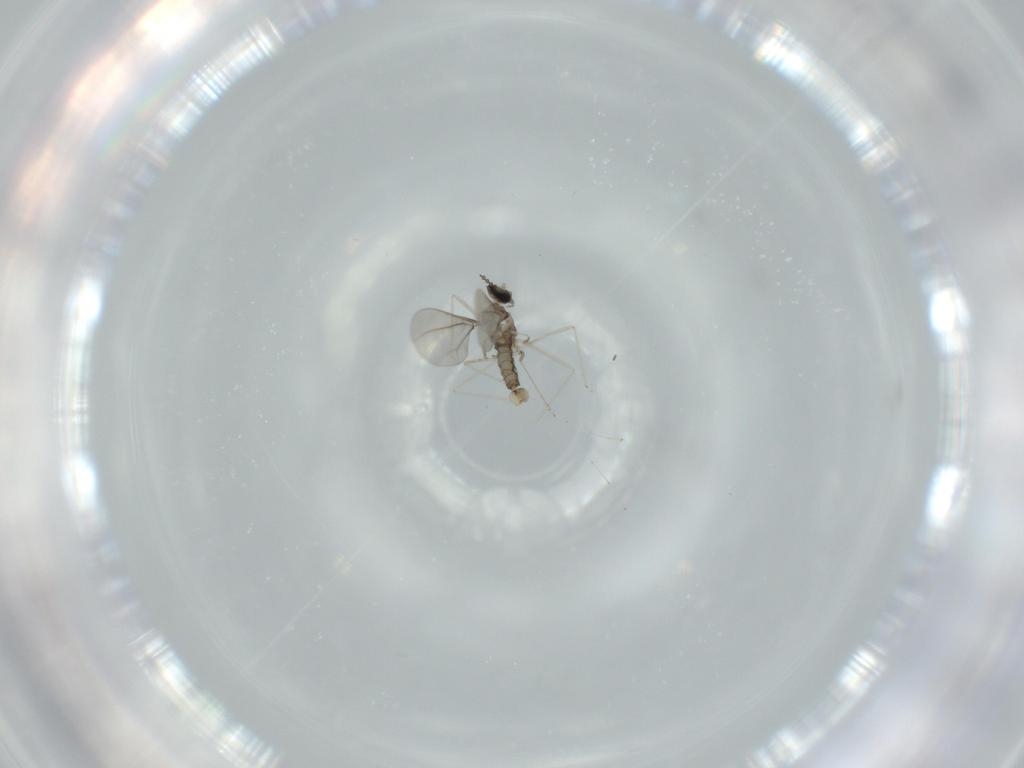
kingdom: Animalia
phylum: Arthropoda
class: Insecta
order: Diptera
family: Cecidomyiidae
